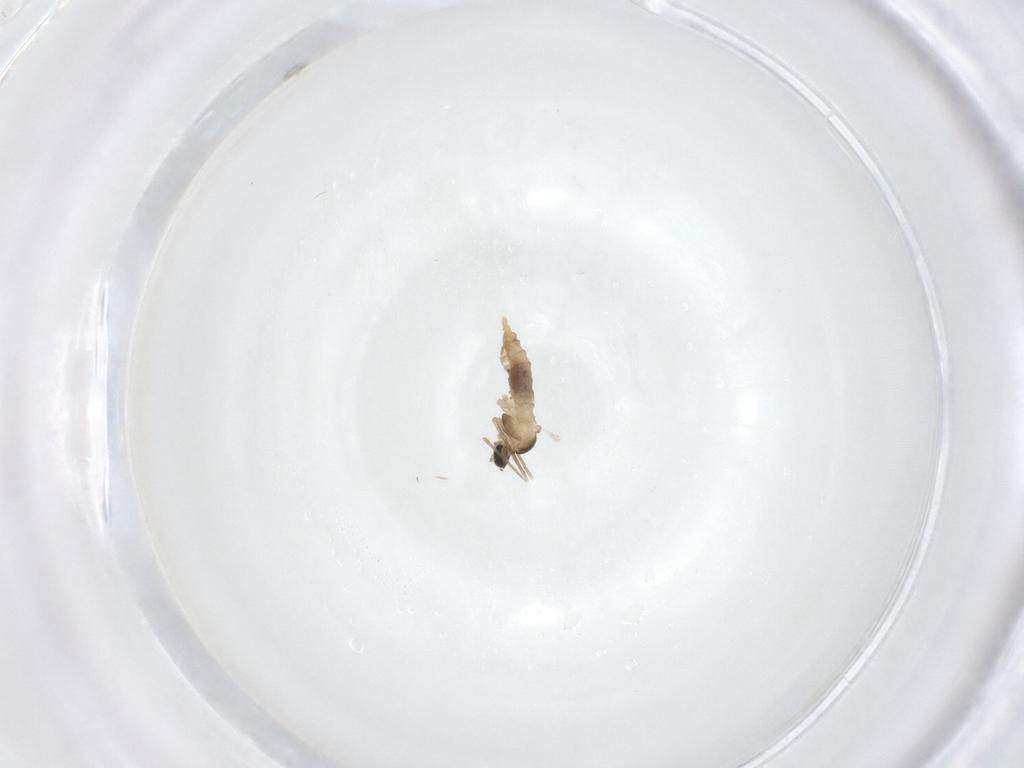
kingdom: Animalia
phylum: Arthropoda
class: Insecta
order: Diptera
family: Cecidomyiidae
